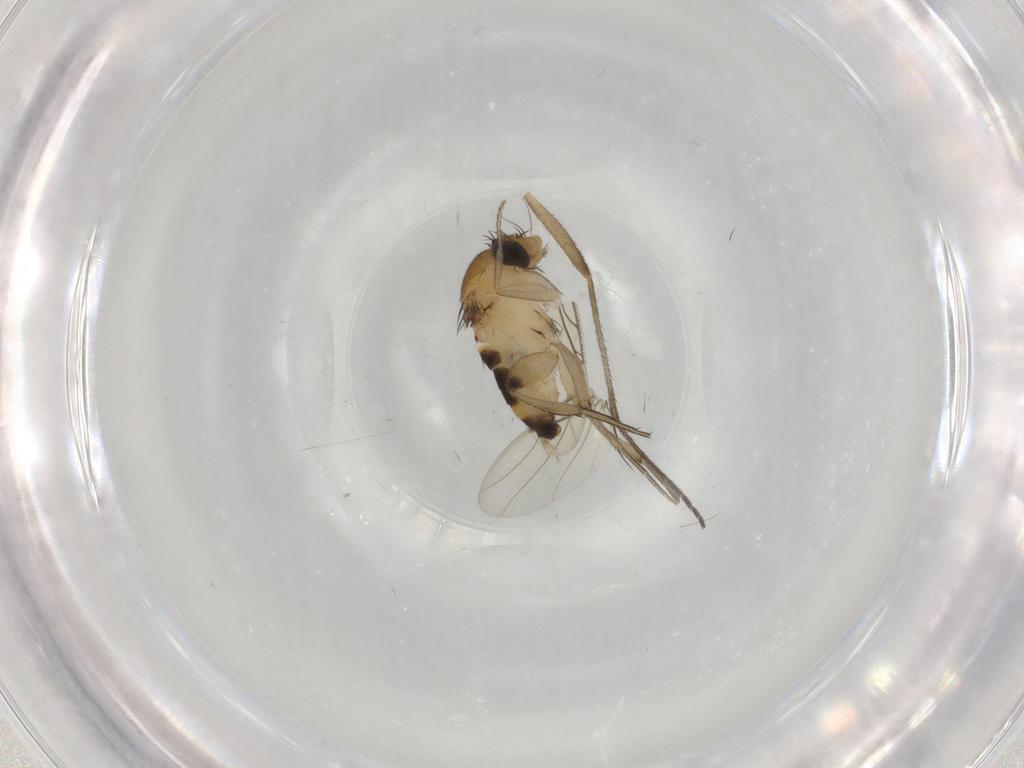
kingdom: Animalia
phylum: Arthropoda
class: Insecta
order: Diptera
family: Phoridae
